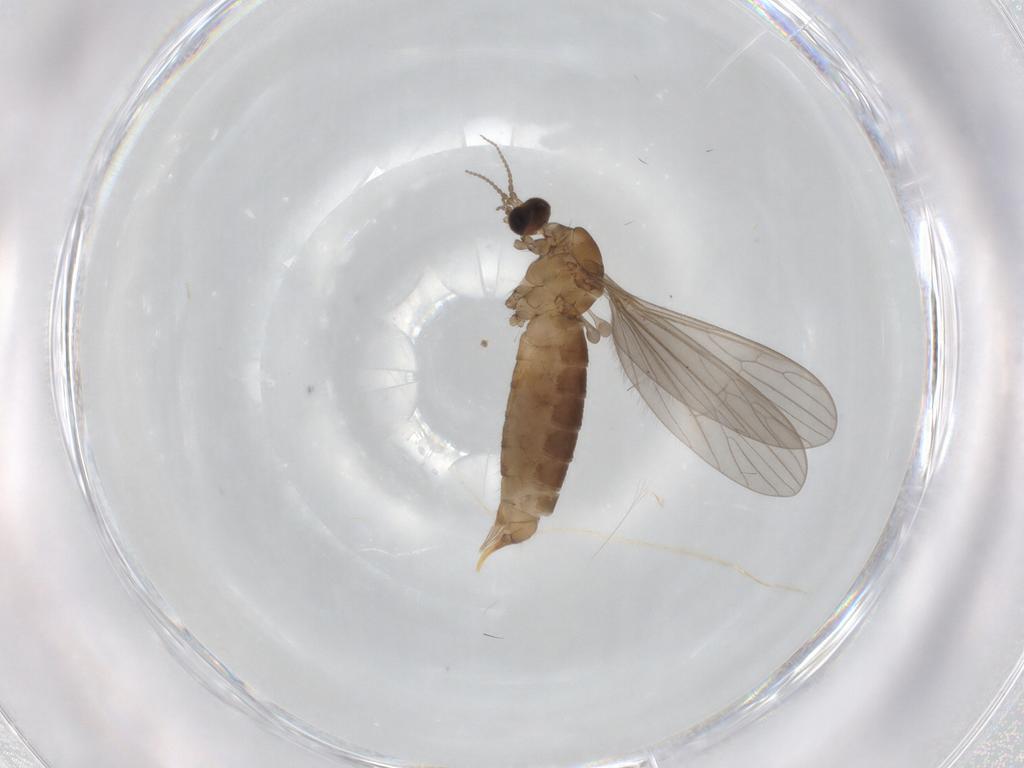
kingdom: Animalia
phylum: Arthropoda
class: Insecta
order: Diptera
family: Limoniidae
